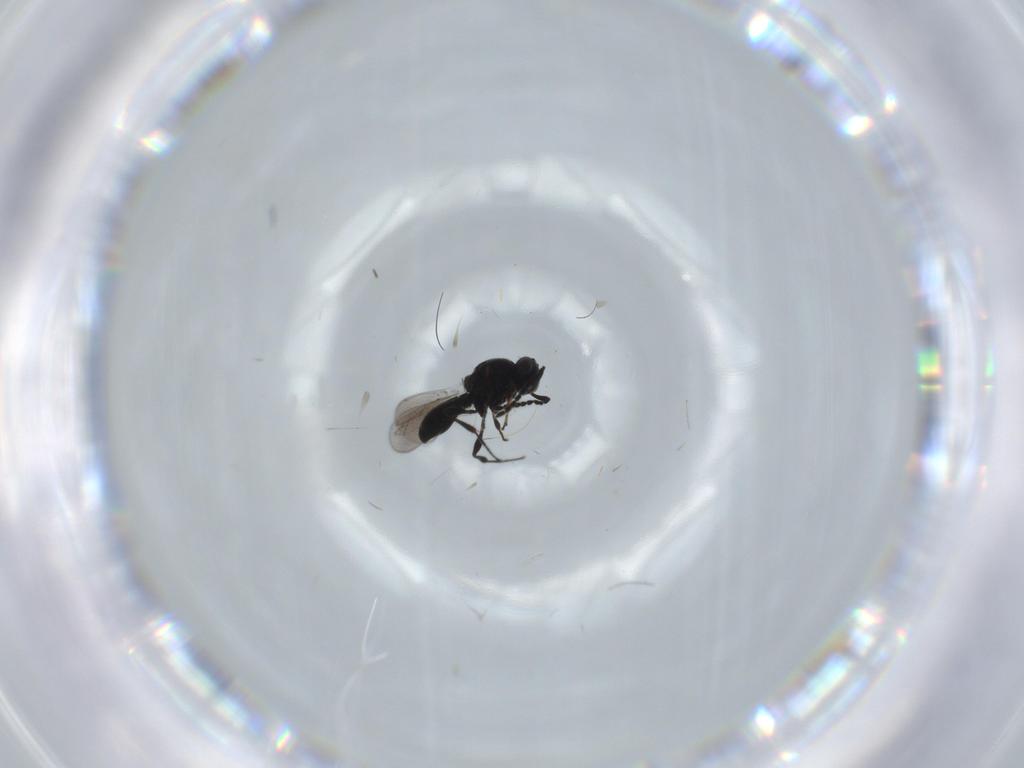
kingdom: Animalia
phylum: Arthropoda
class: Insecta
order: Hymenoptera
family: Platygastridae
